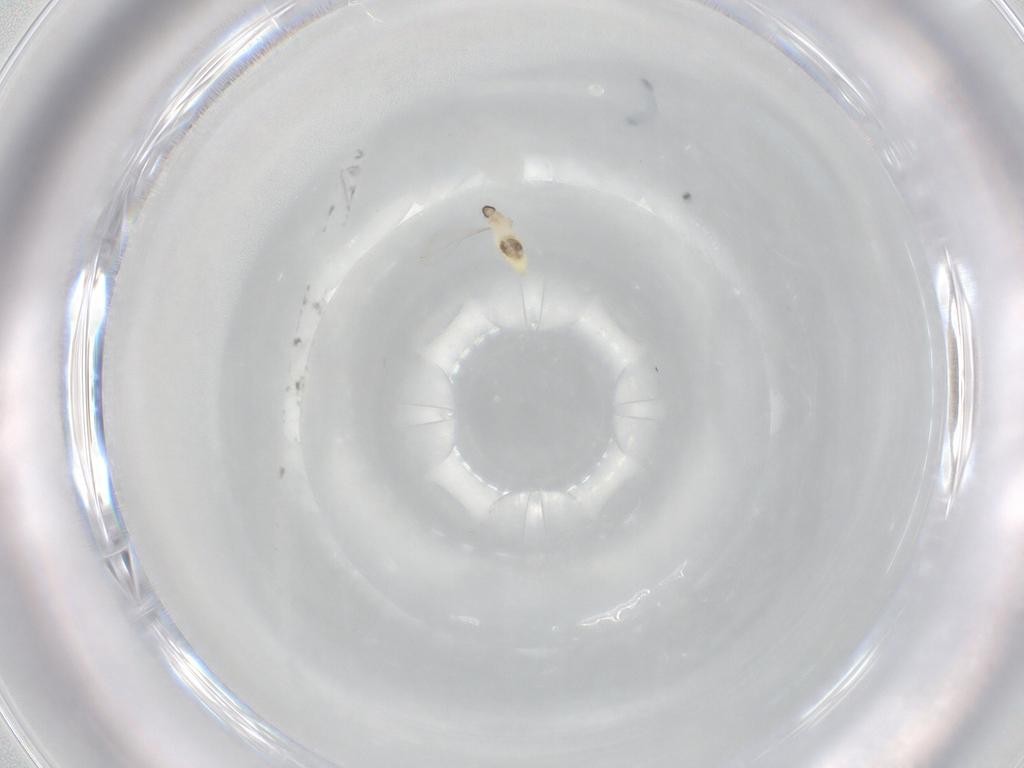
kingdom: Animalia
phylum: Arthropoda
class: Insecta
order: Diptera
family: Cecidomyiidae
